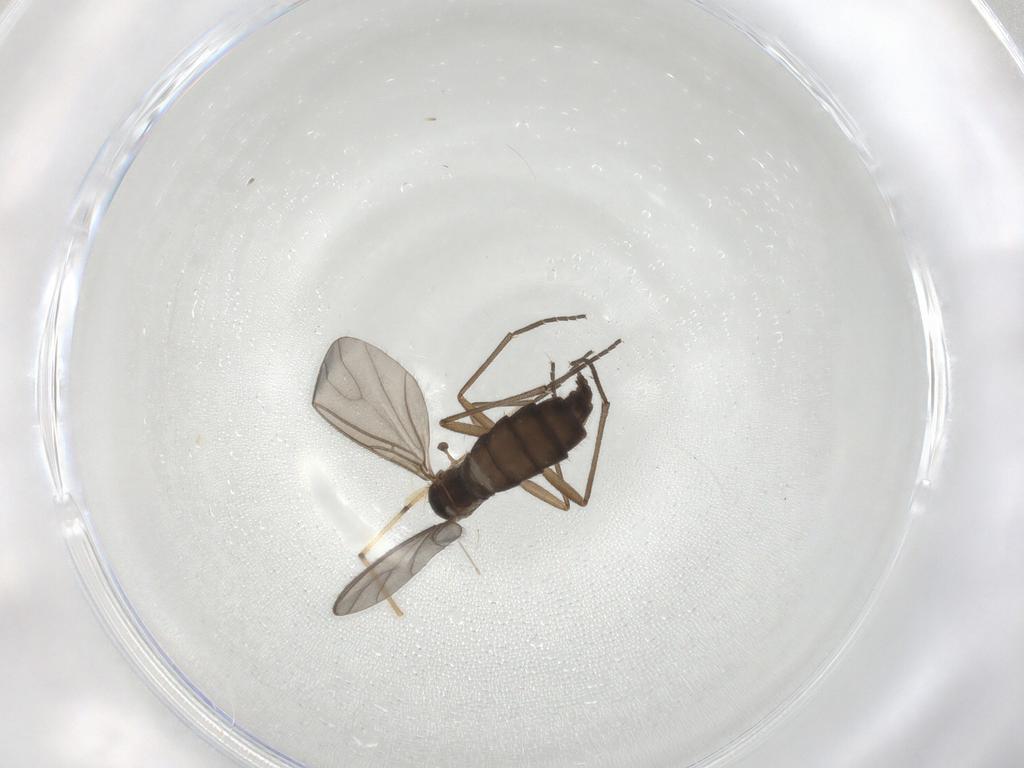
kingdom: Animalia
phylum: Arthropoda
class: Insecta
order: Diptera
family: Sciaridae
